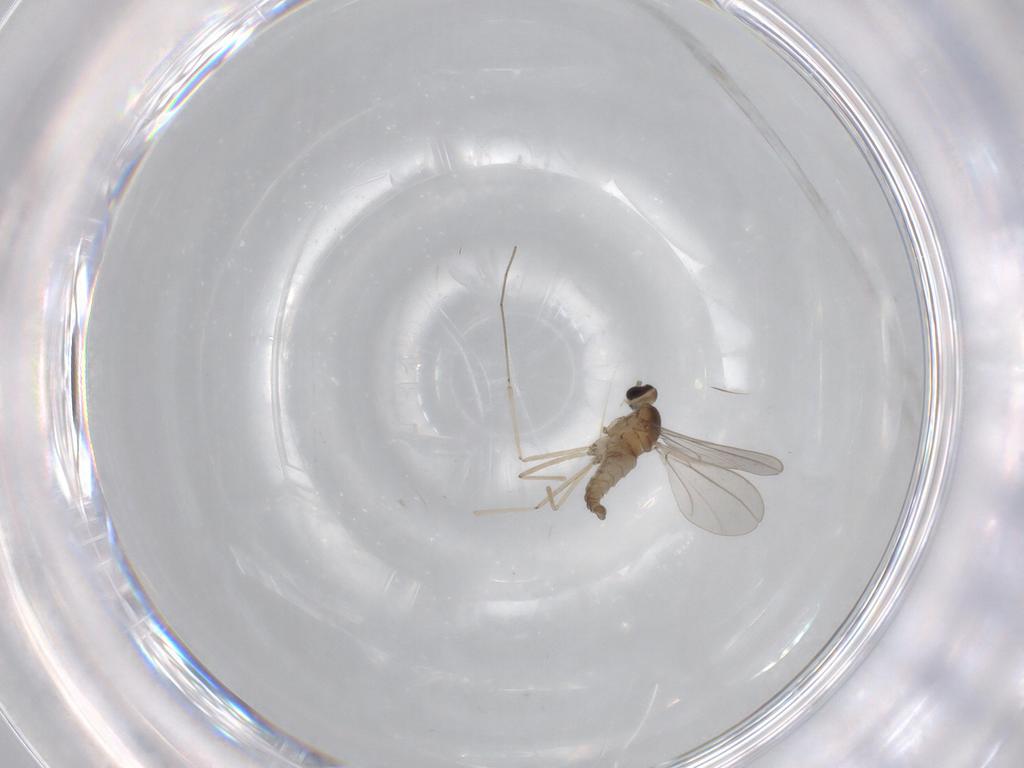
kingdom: Animalia
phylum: Arthropoda
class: Insecta
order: Diptera
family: Cecidomyiidae
